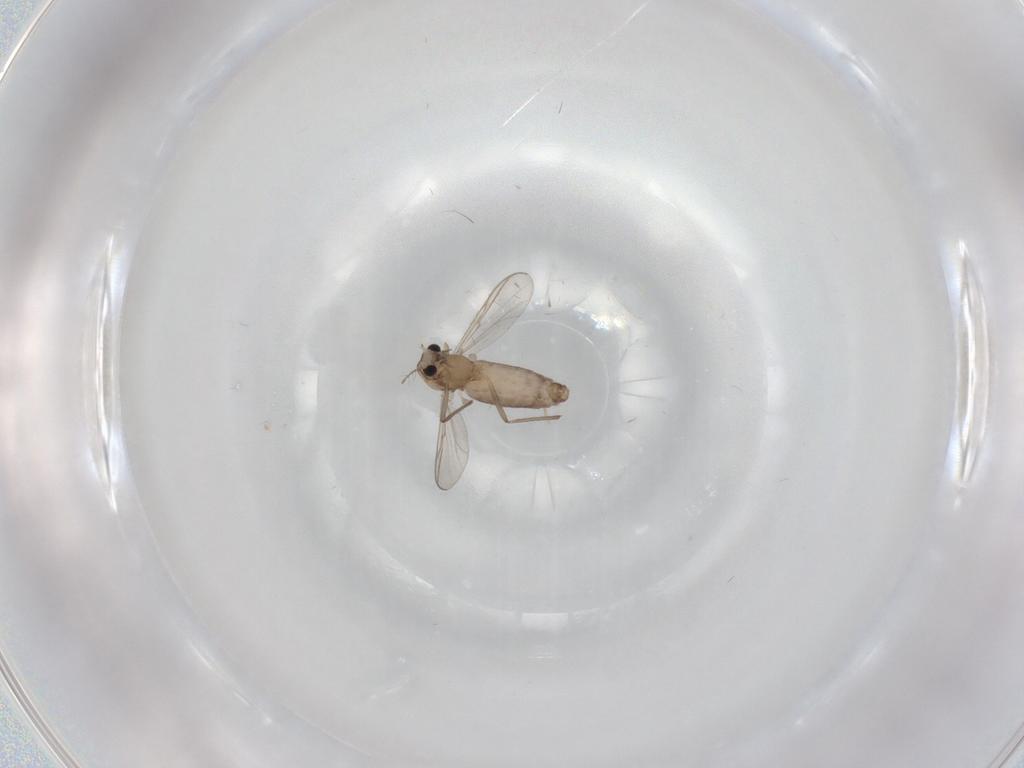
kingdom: Animalia
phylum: Arthropoda
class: Insecta
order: Diptera
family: Chironomidae
